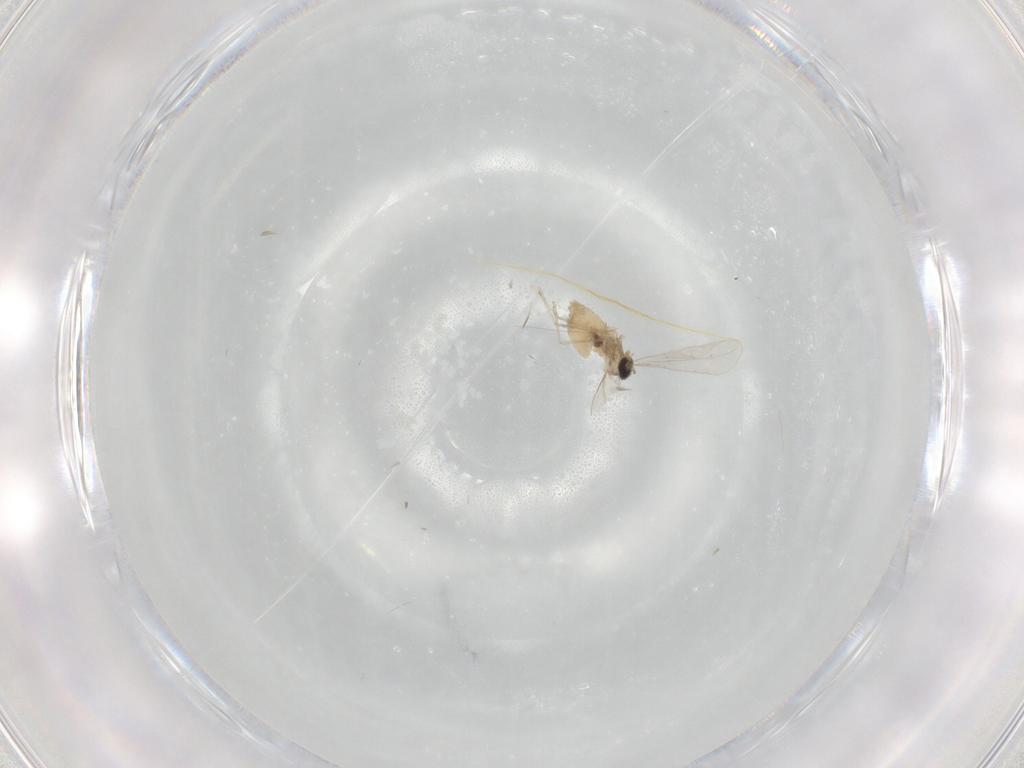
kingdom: Animalia
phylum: Arthropoda
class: Insecta
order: Diptera
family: Cecidomyiidae
